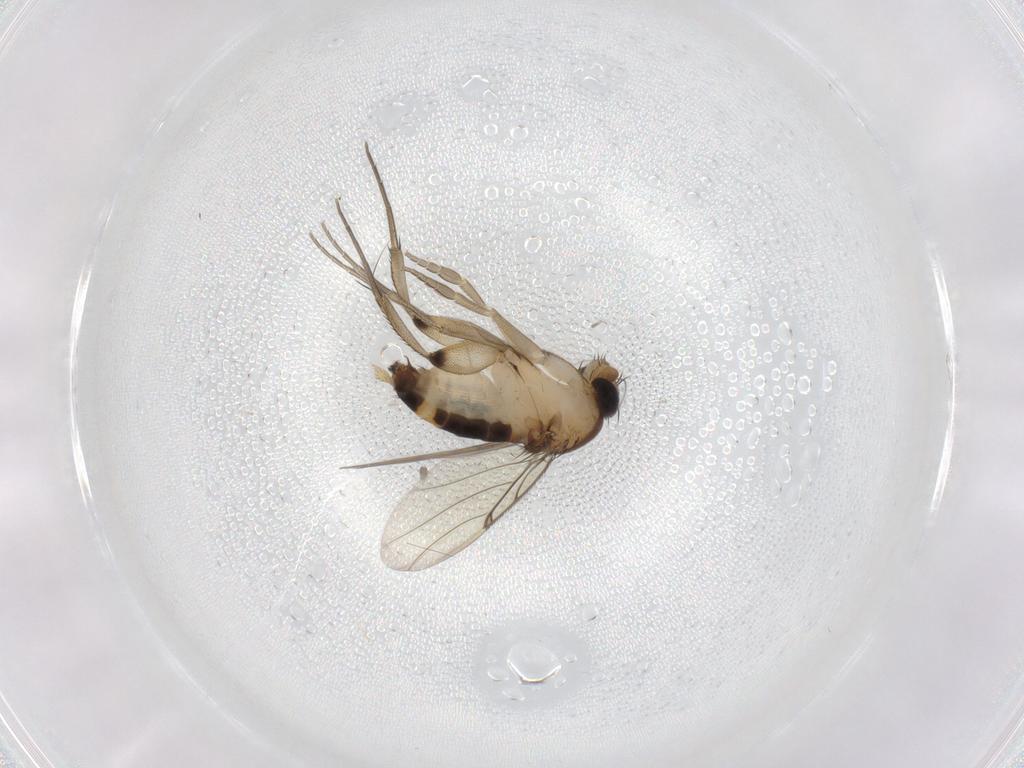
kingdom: Animalia
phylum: Arthropoda
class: Insecta
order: Diptera
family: Phoridae
